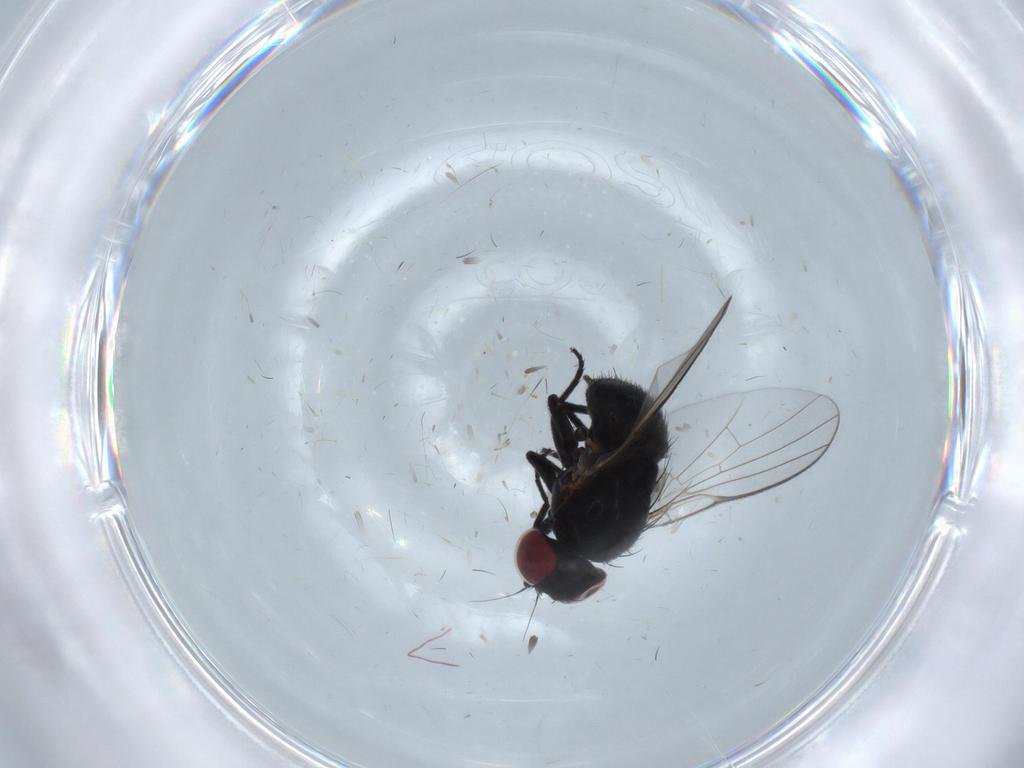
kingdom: Animalia
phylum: Arthropoda
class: Insecta
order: Diptera
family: Agromyzidae
